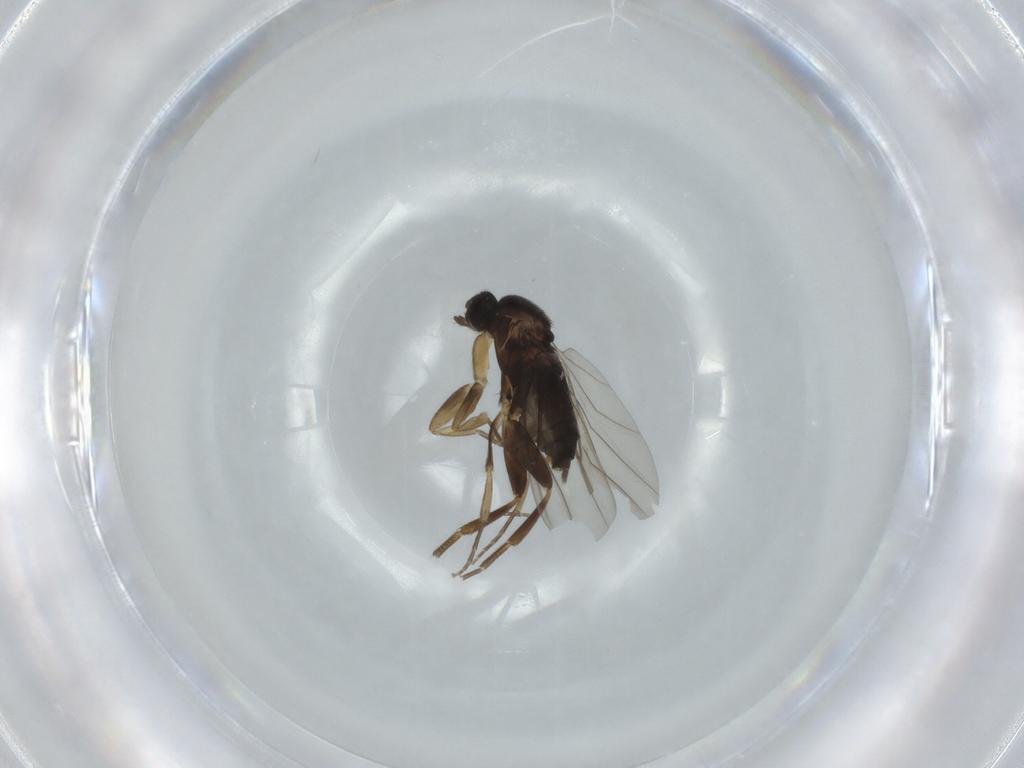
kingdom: Animalia
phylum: Arthropoda
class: Insecta
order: Diptera
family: Phoridae
